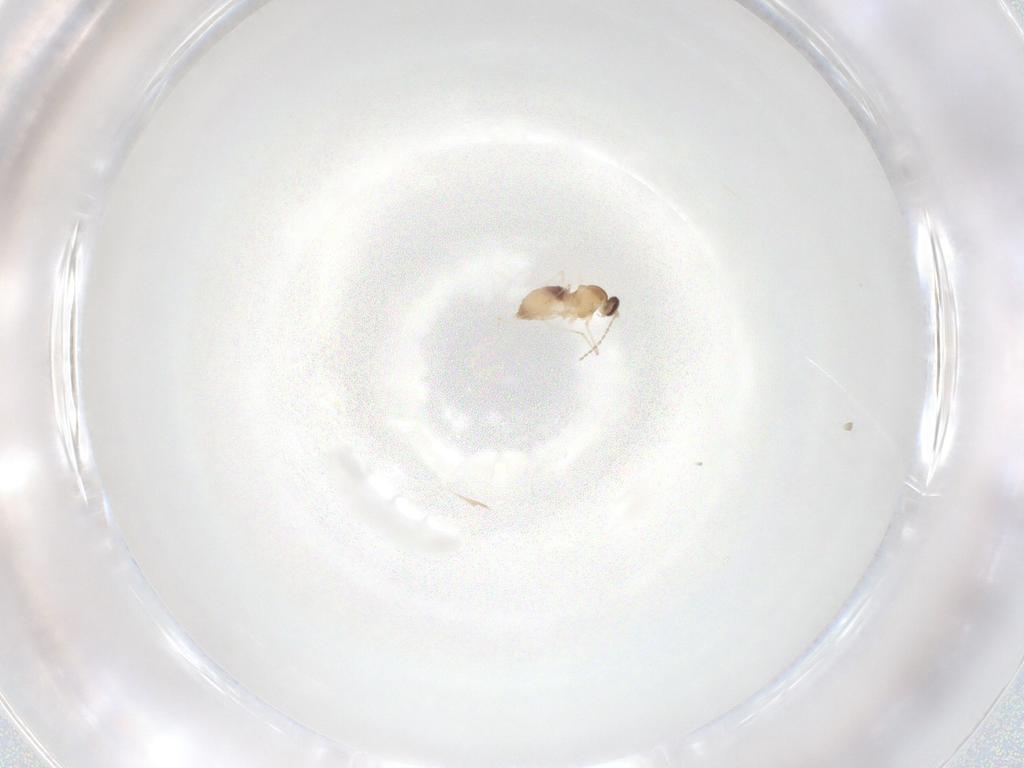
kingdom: Animalia
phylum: Arthropoda
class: Insecta
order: Diptera
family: Cecidomyiidae
